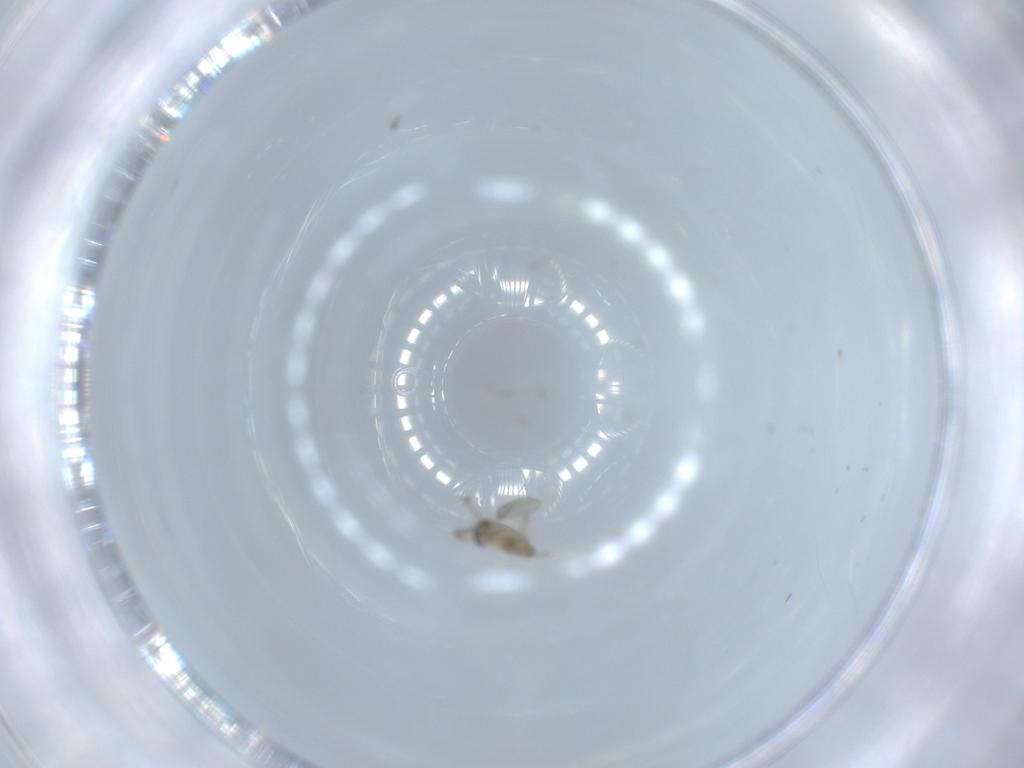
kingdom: Animalia
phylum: Arthropoda
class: Insecta
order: Diptera
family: Cecidomyiidae
